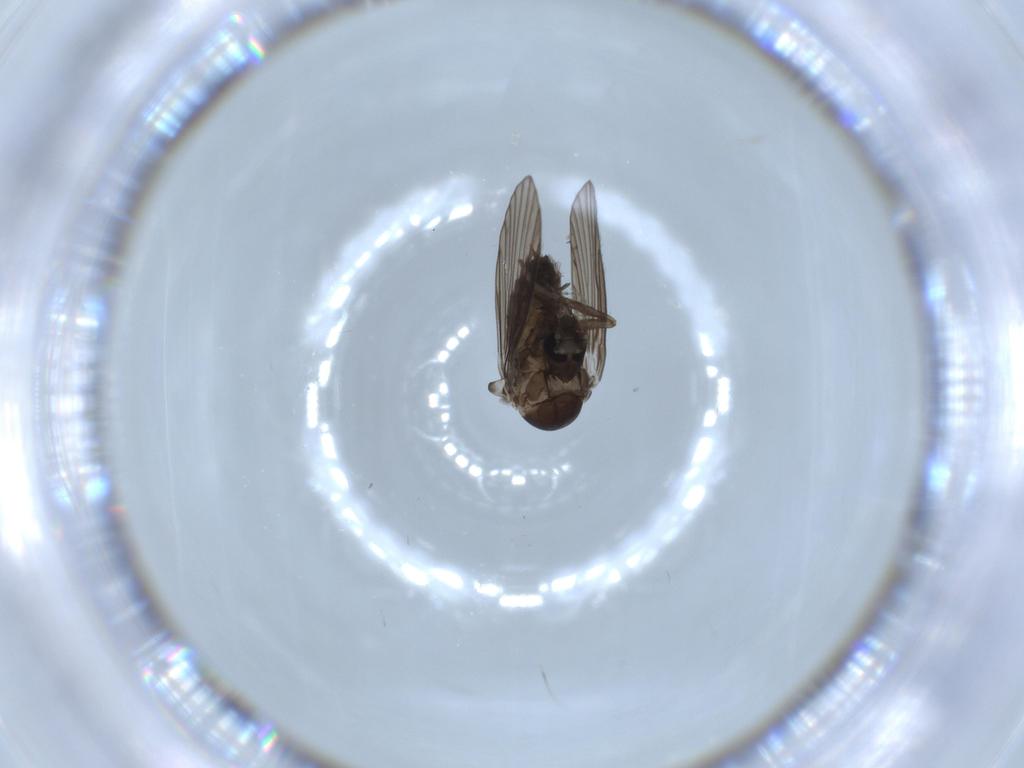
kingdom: Animalia
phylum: Arthropoda
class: Insecta
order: Diptera
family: Psychodidae
